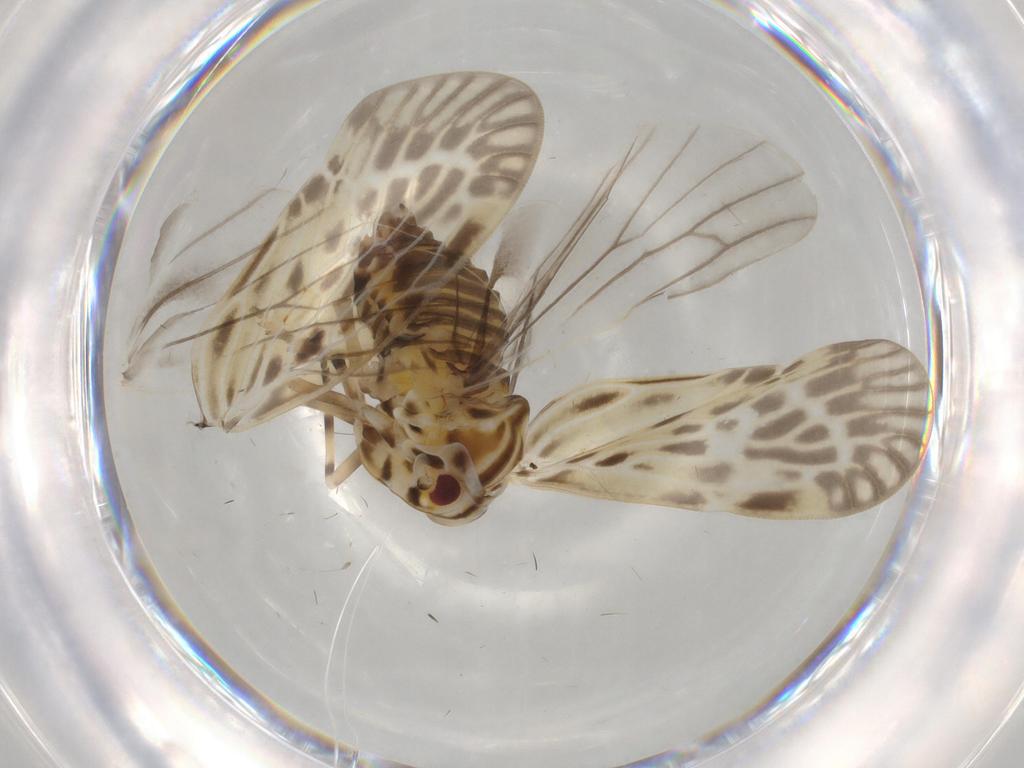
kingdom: Animalia
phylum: Arthropoda
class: Insecta
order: Hemiptera
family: Derbidae
